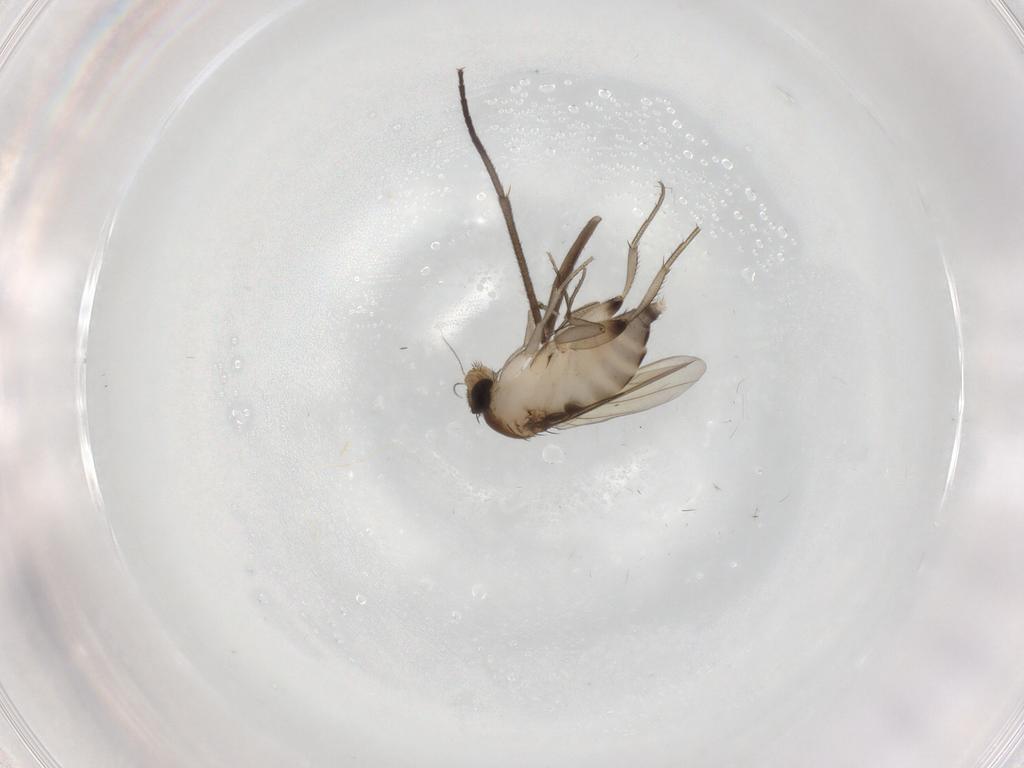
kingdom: Animalia
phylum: Arthropoda
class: Insecta
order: Diptera
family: Phoridae
